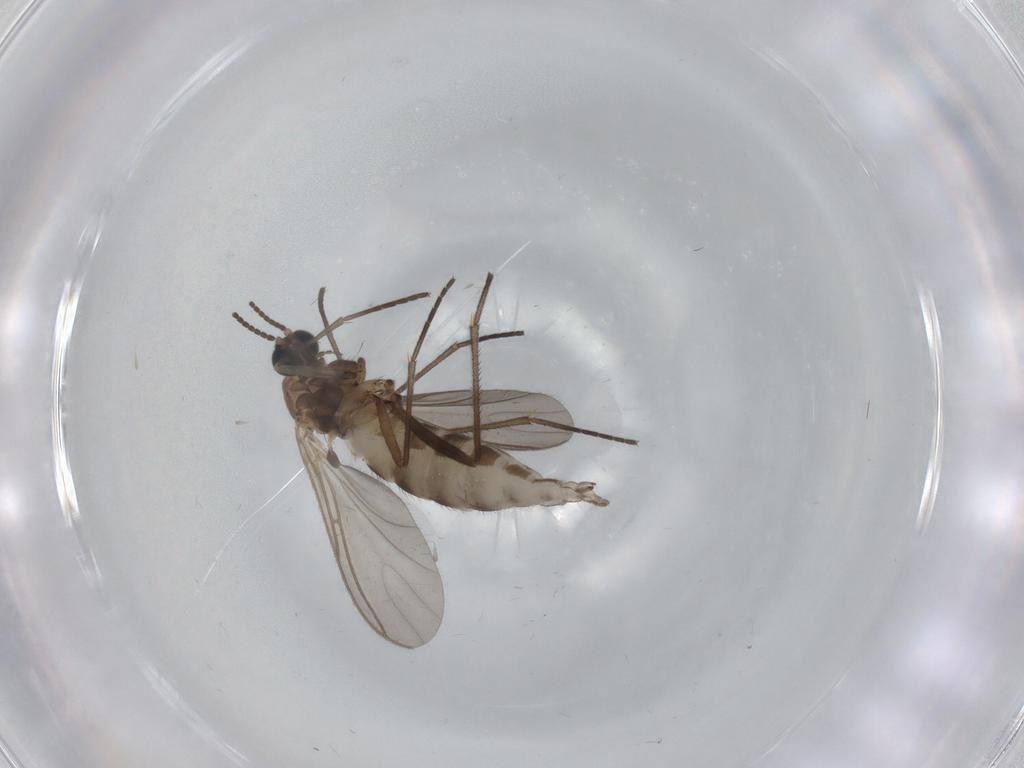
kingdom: Animalia
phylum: Arthropoda
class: Insecta
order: Diptera
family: Sciaridae
